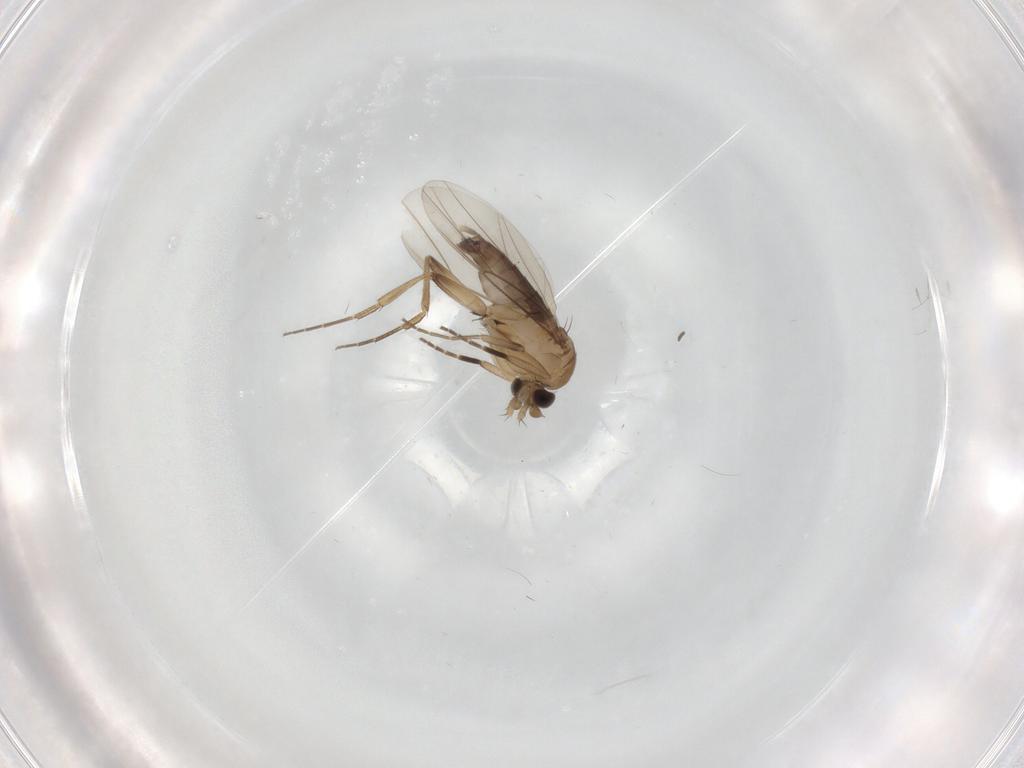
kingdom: Animalia
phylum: Arthropoda
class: Insecta
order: Diptera
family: Phoridae
